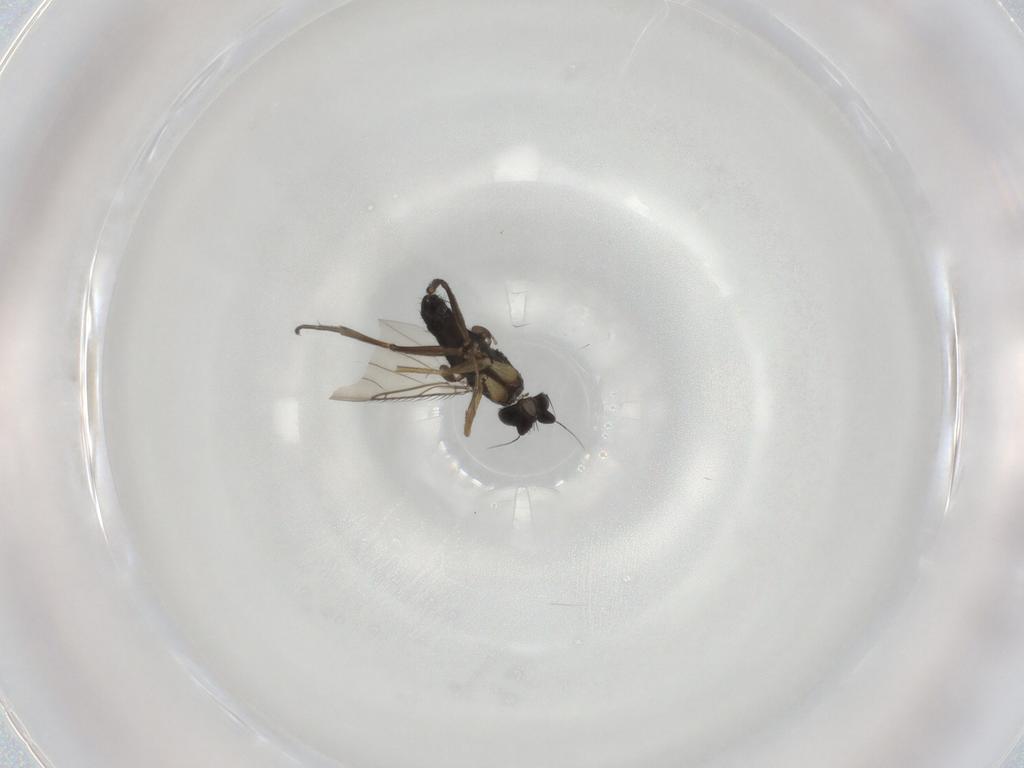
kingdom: Animalia
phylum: Arthropoda
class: Insecta
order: Diptera
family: Phoridae
